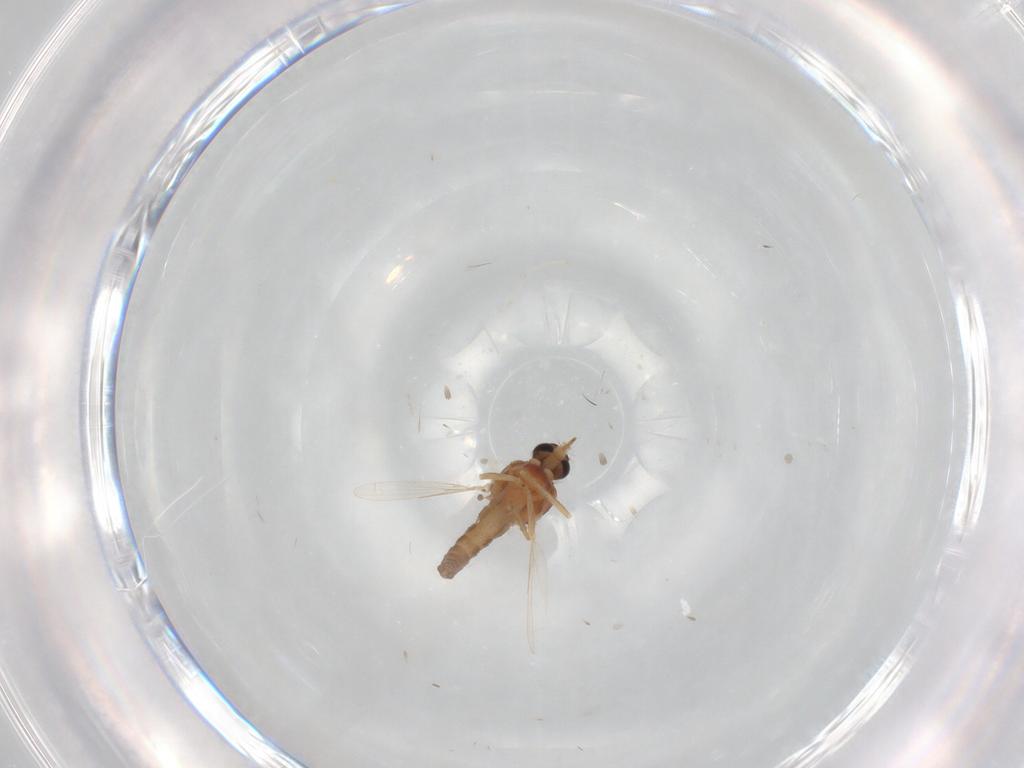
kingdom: Animalia
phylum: Arthropoda
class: Insecta
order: Diptera
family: Ceratopogonidae
